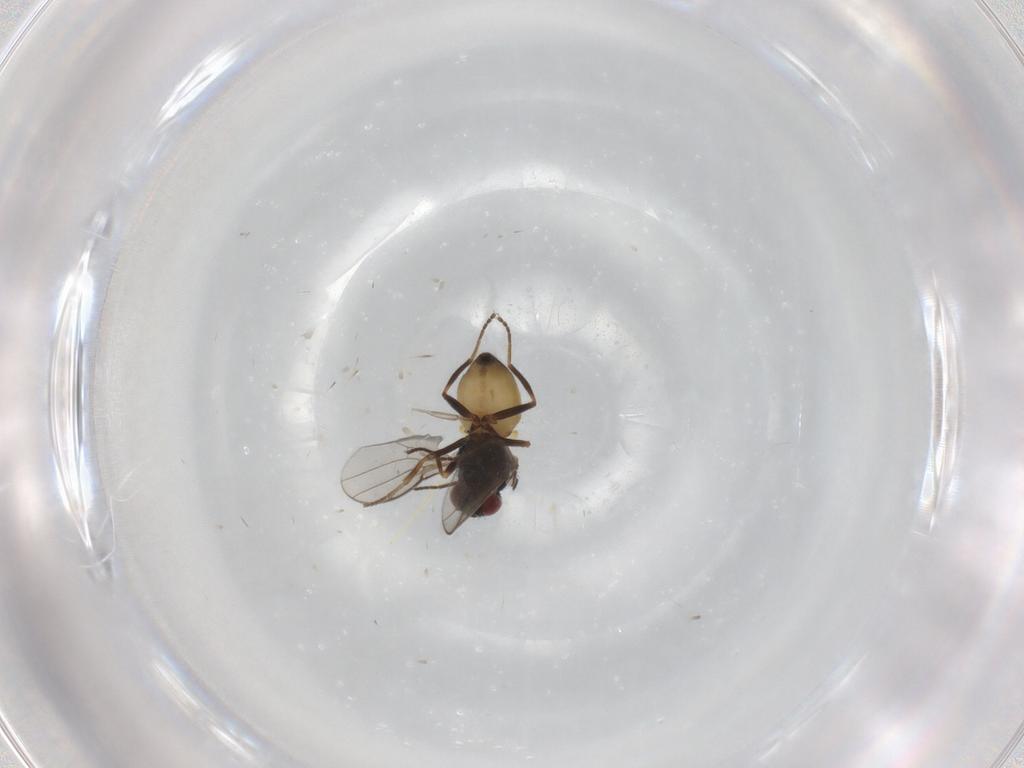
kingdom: Animalia
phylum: Arthropoda
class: Insecta
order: Diptera
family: Chloropidae
